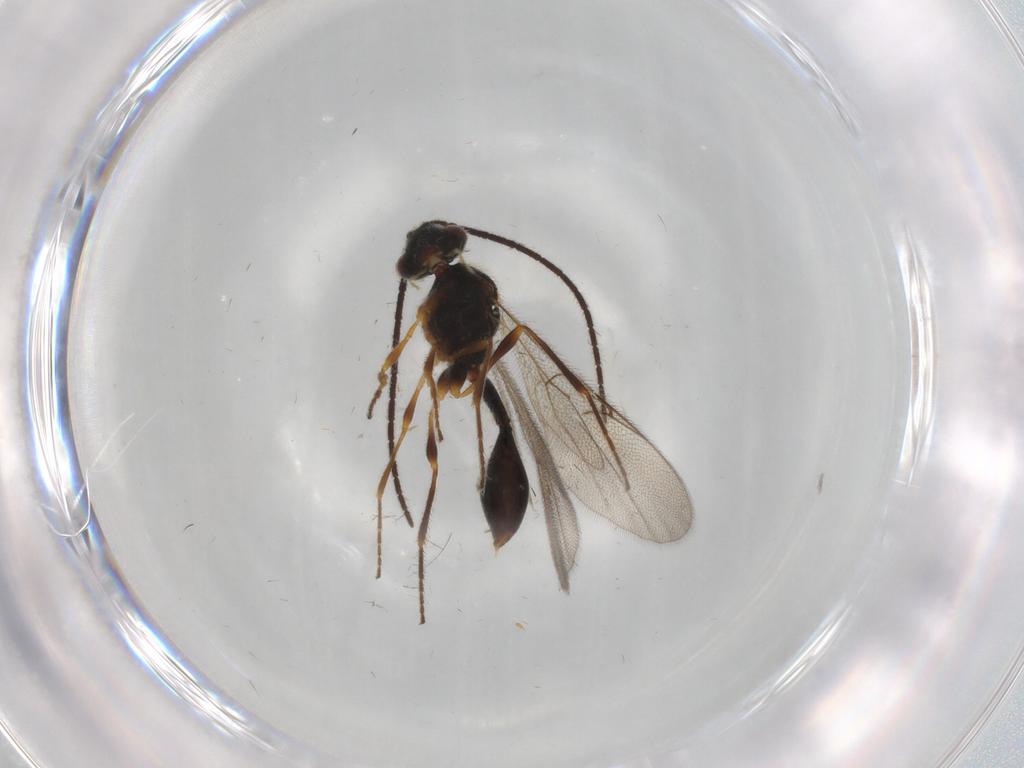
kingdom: Animalia
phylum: Arthropoda
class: Insecta
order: Hymenoptera
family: Diapriidae
